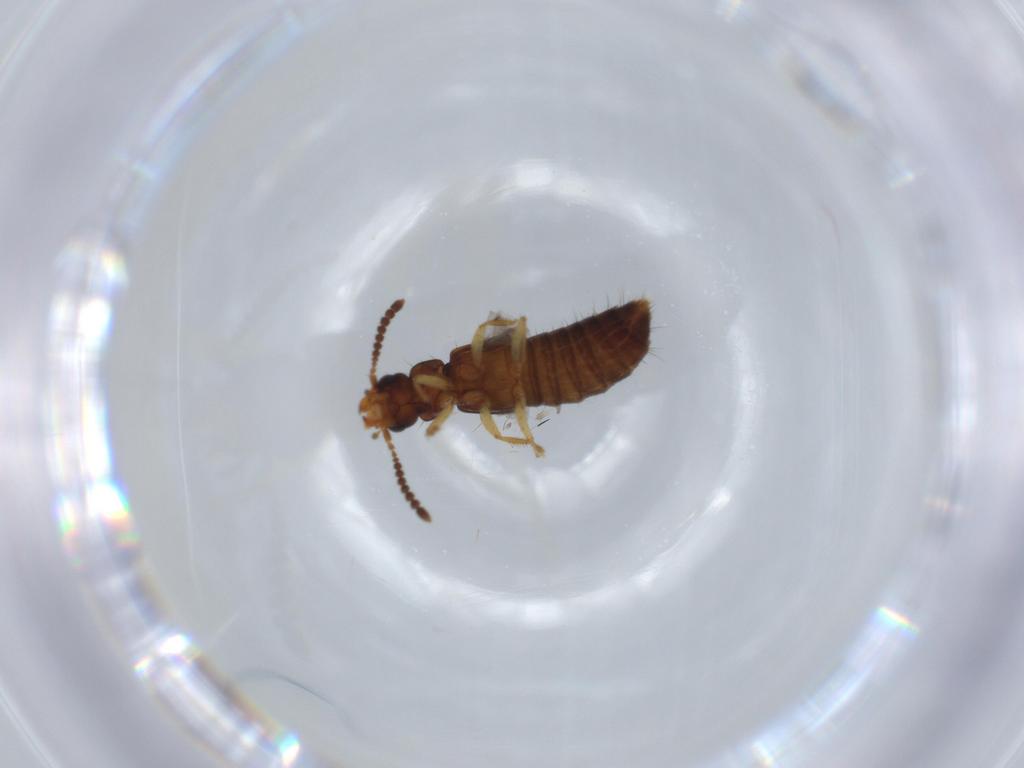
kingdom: Animalia
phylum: Arthropoda
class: Insecta
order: Coleoptera
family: Staphylinidae
